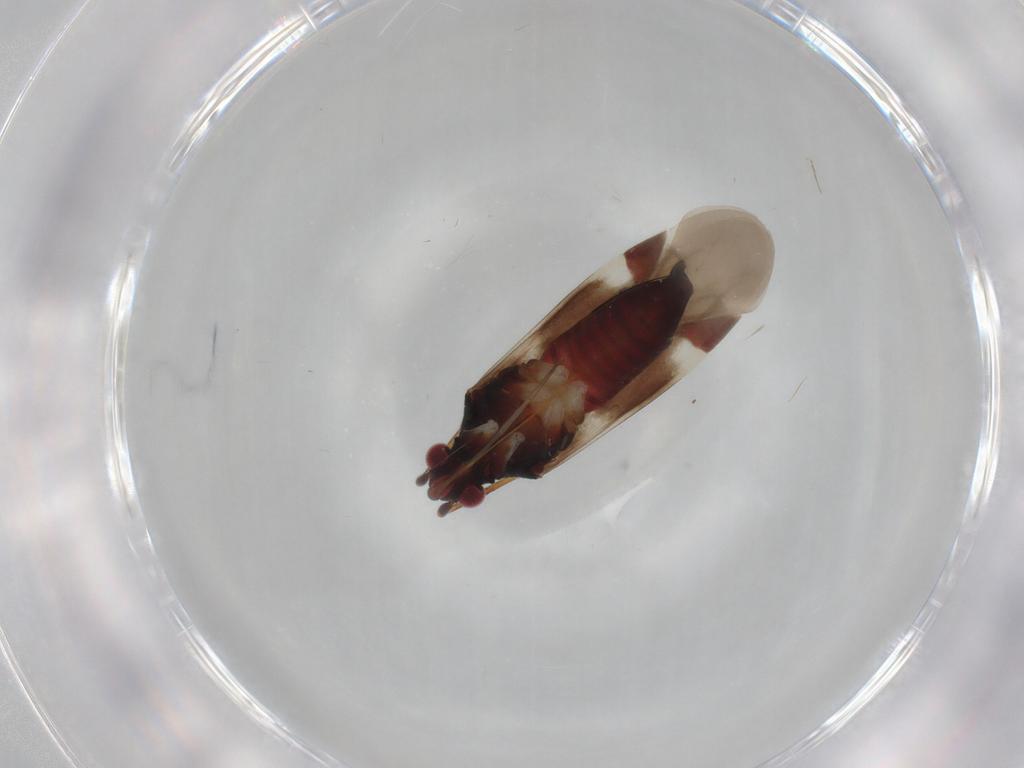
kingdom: Animalia
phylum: Arthropoda
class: Insecta
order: Hemiptera
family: Miridae
